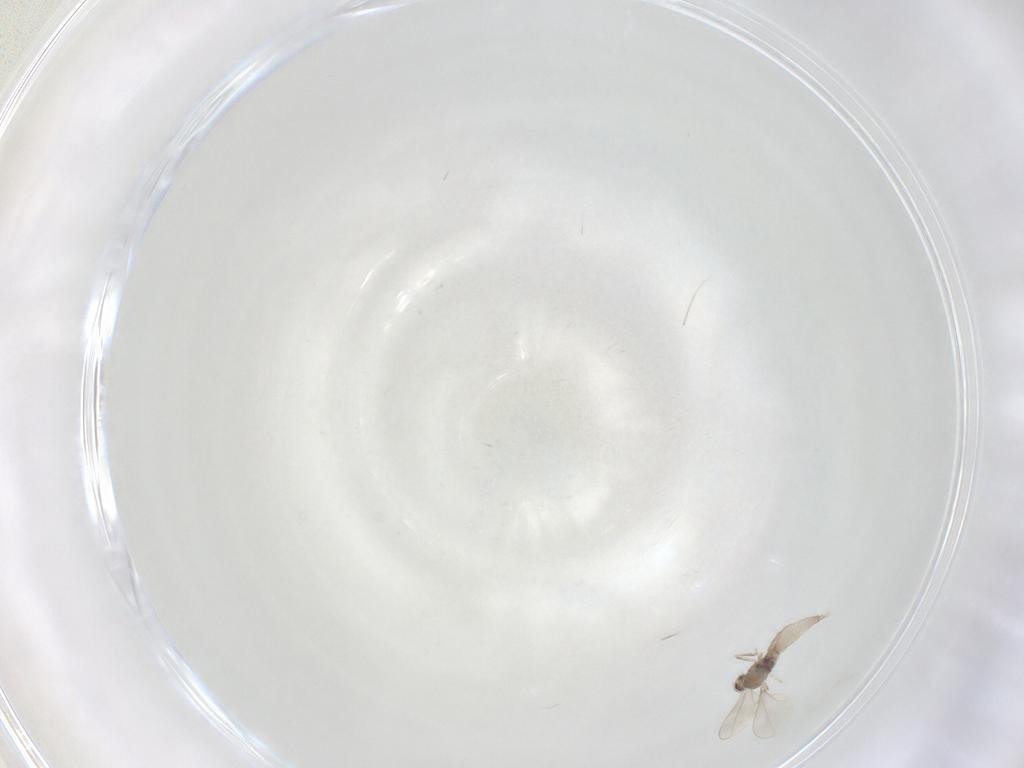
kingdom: Animalia
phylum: Arthropoda
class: Insecta
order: Diptera
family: Cecidomyiidae
